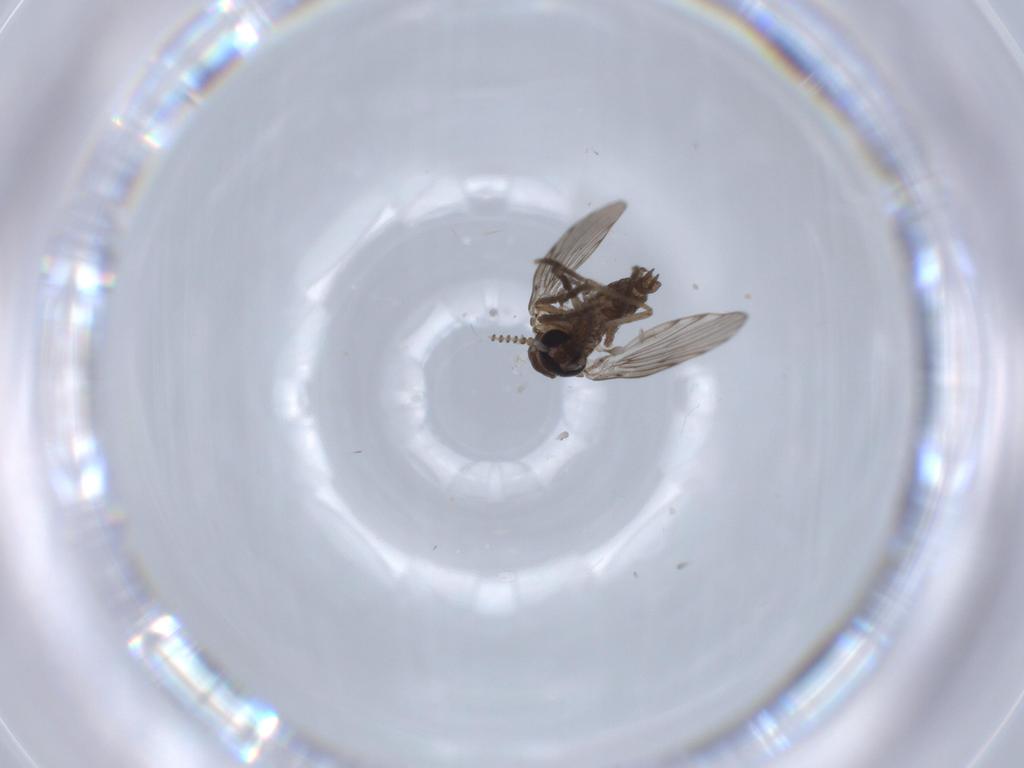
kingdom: Animalia
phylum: Arthropoda
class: Insecta
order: Diptera
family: Psychodidae
